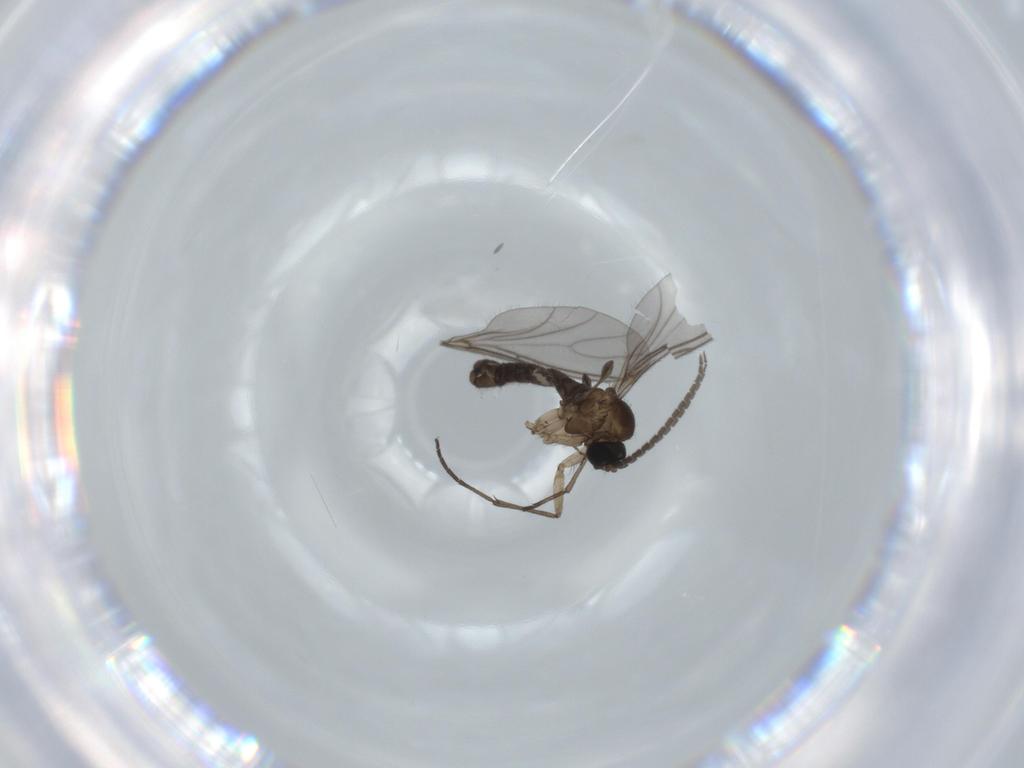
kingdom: Animalia
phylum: Arthropoda
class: Insecta
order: Diptera
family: Sciaridae
